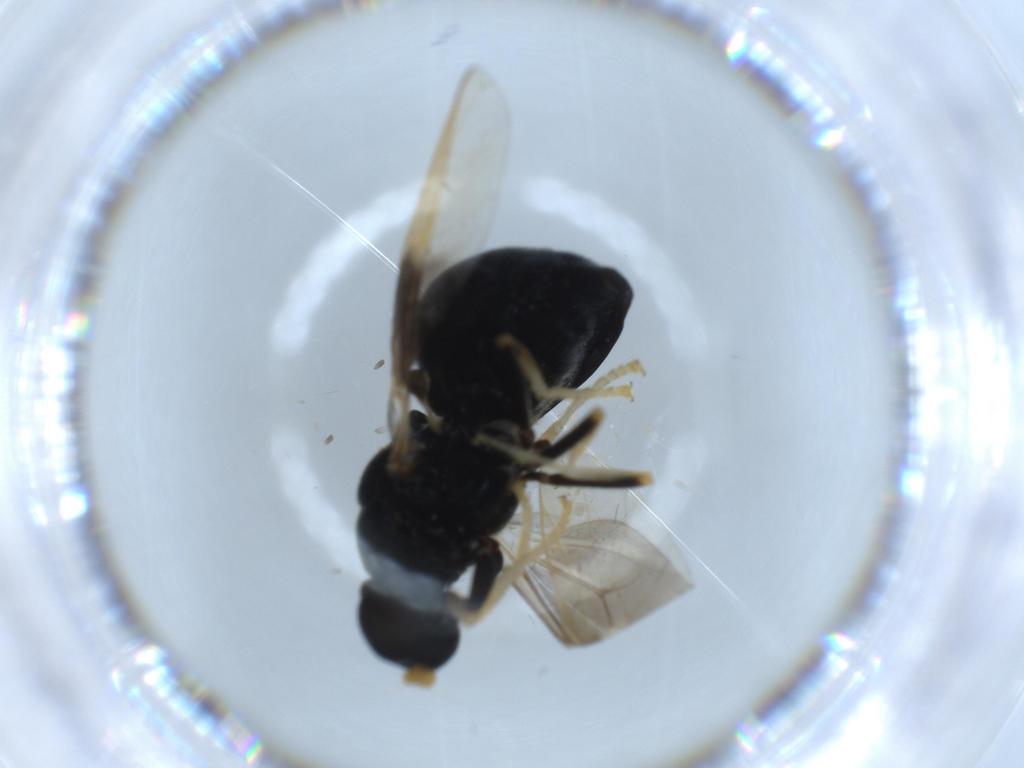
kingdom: Animalia
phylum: Arthropoda
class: Insecta
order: Diptera
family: Stratiomyidae
